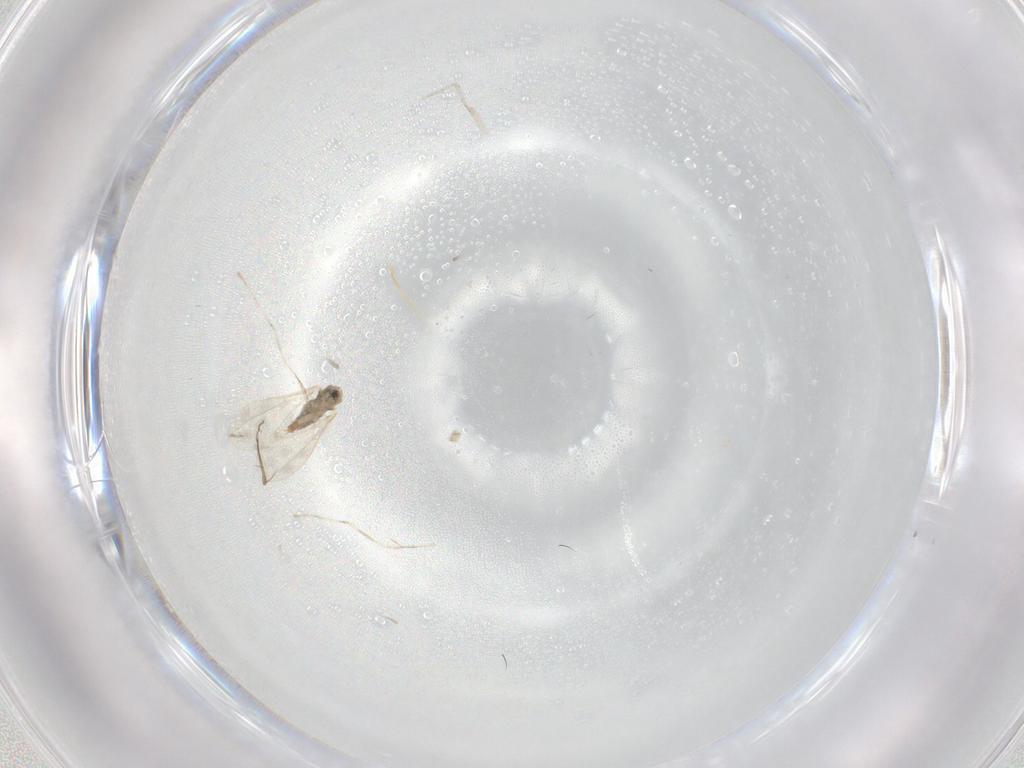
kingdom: Animalia
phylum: Arthropoda
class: Insecta
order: Diptera
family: Cecidomyiidae
